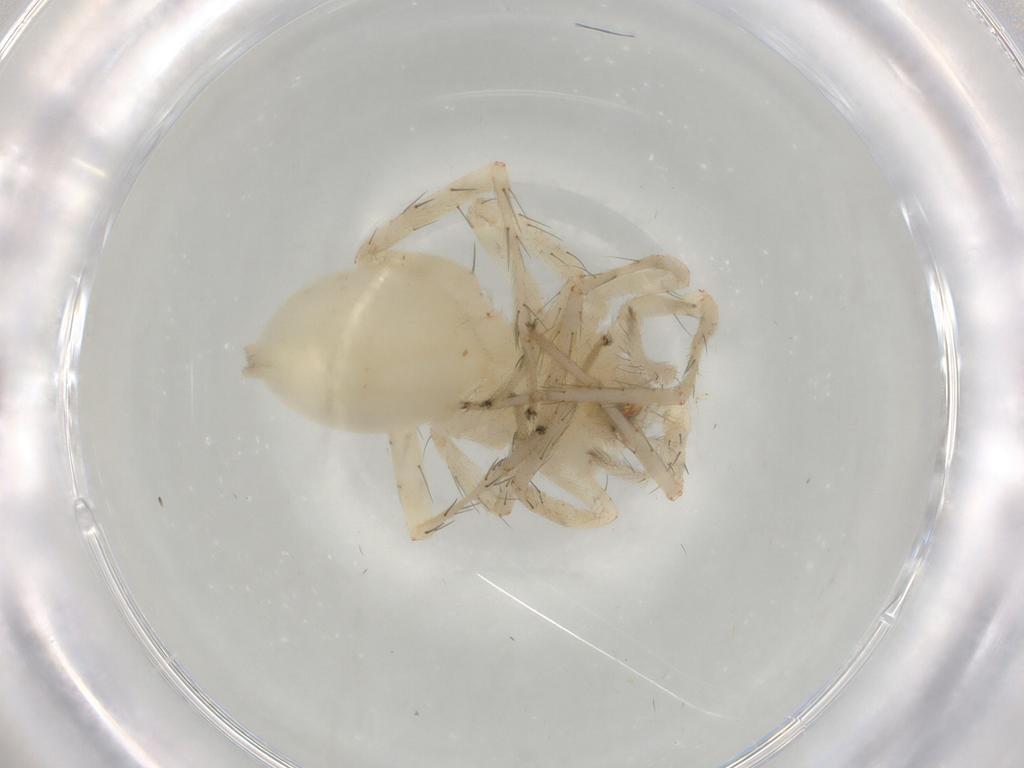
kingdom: Animalia
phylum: Arthropoda
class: Arachnida
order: Araneae
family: Anyphaenidae
